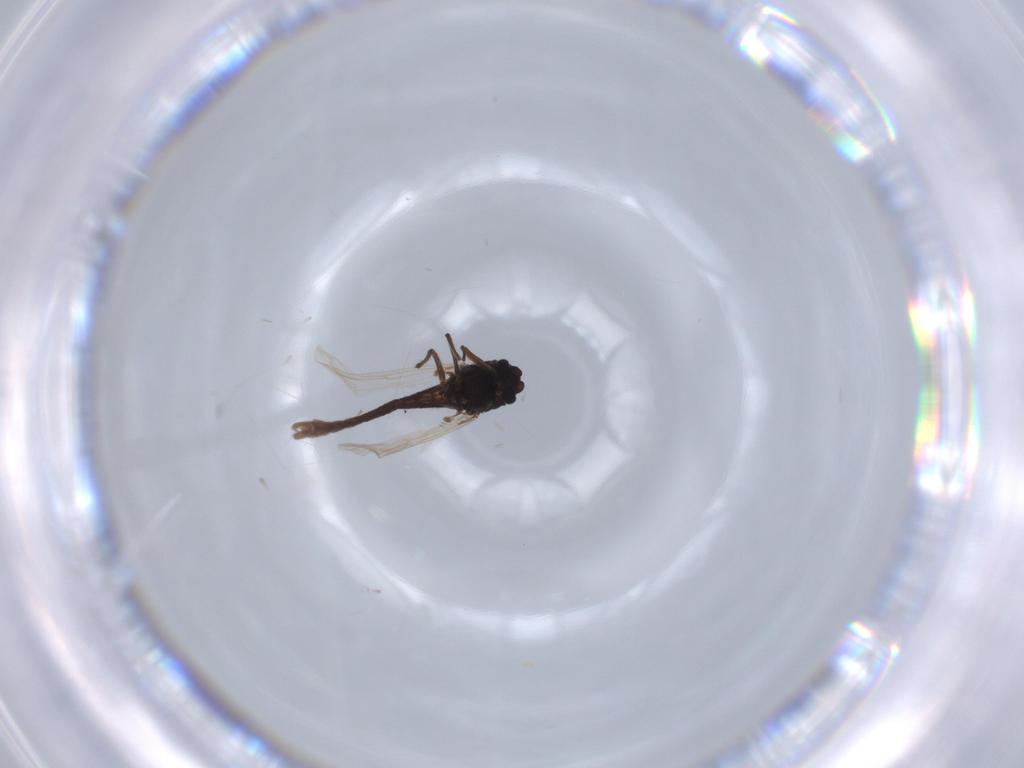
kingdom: Animalia
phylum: Arthropoda
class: Insecta
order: Diptera
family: Chironomidae
